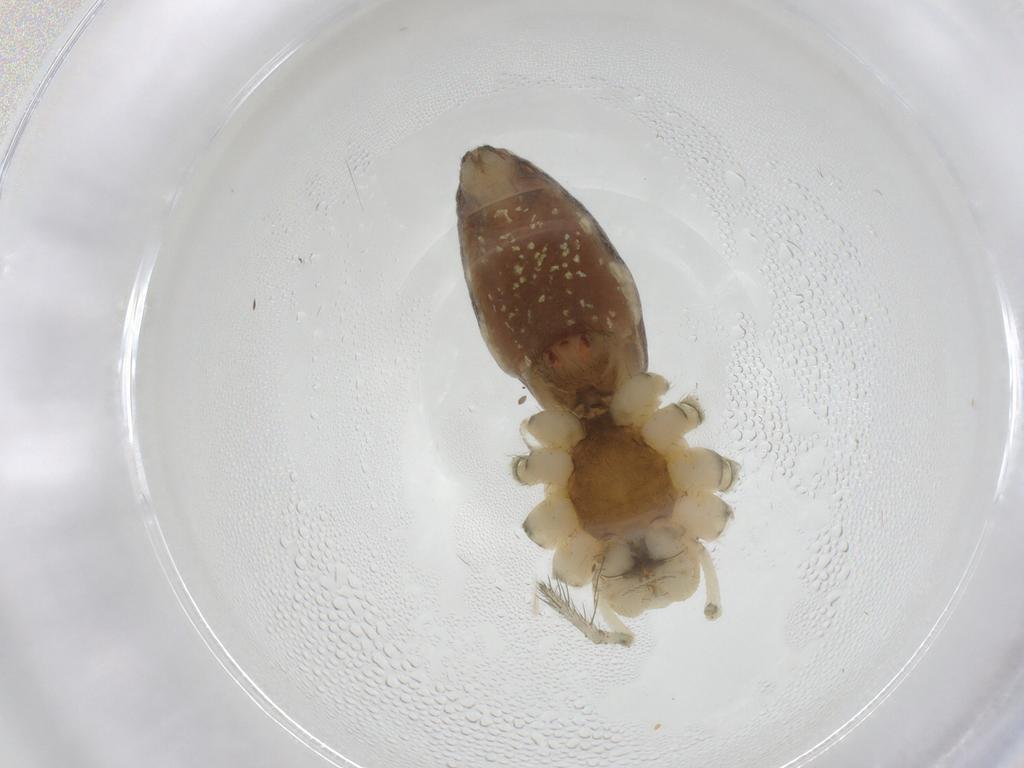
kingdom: Animalia
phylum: Arthropoda
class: Arachnida
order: Araneae
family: Linyphiidae
